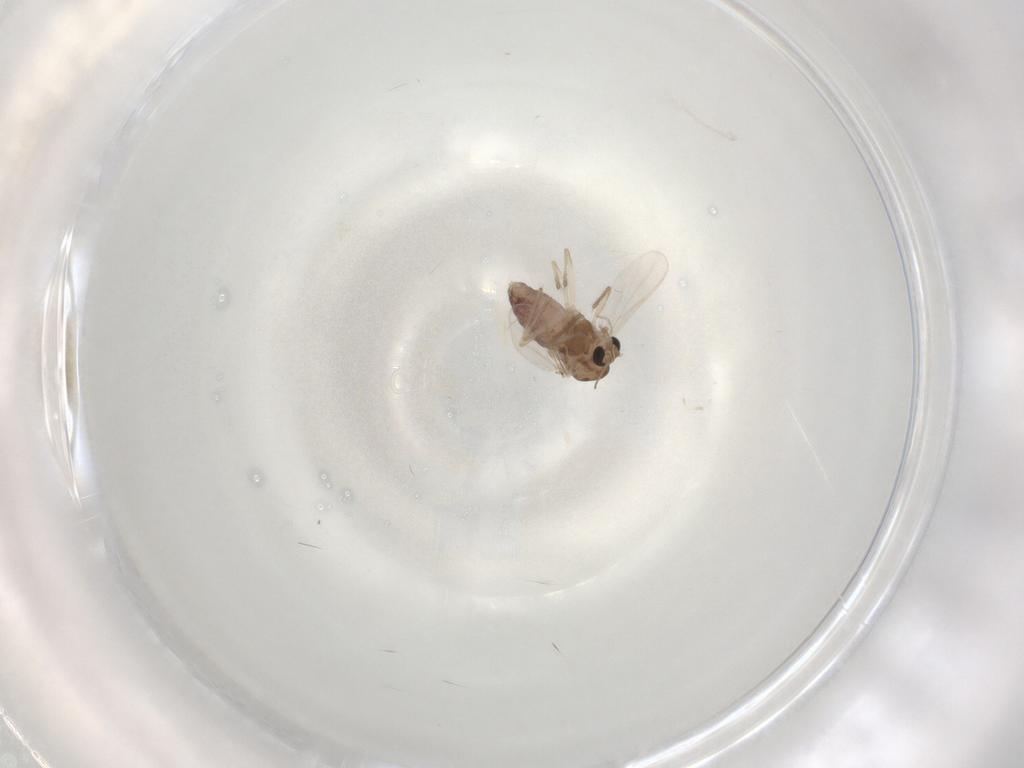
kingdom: Animalia
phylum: Arthropoda
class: Insecta
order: Diptera
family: Chironomidae
